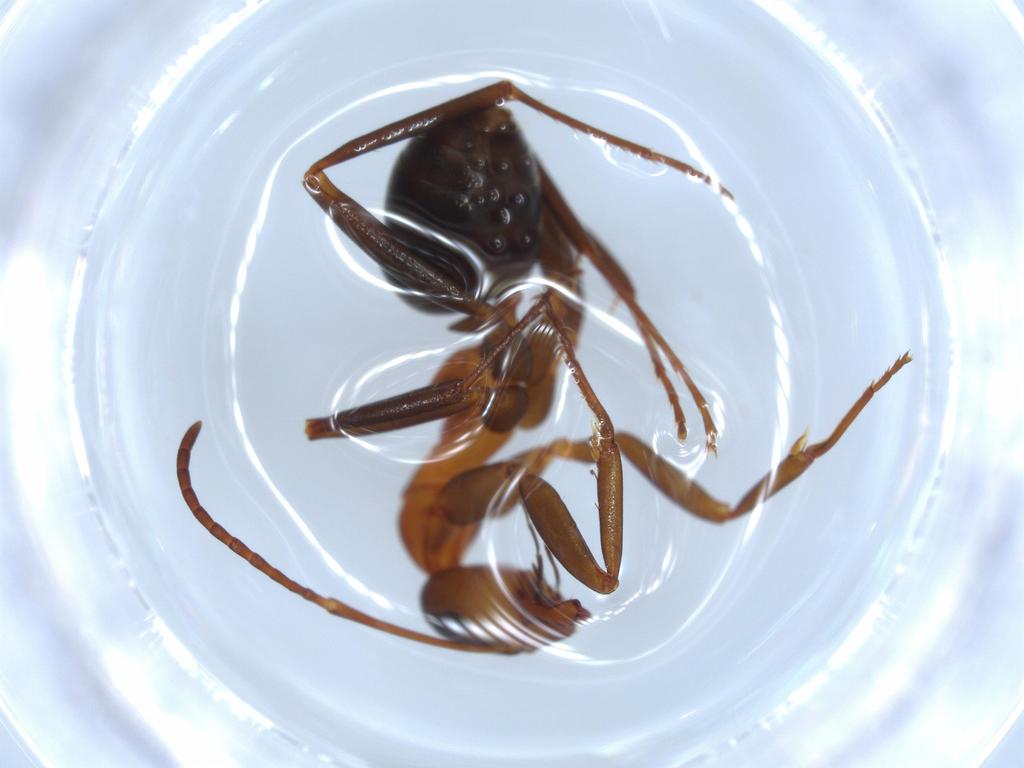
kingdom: Animalia
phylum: Arthropoda
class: Insecta
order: Hymenoptera
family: Formicidae
